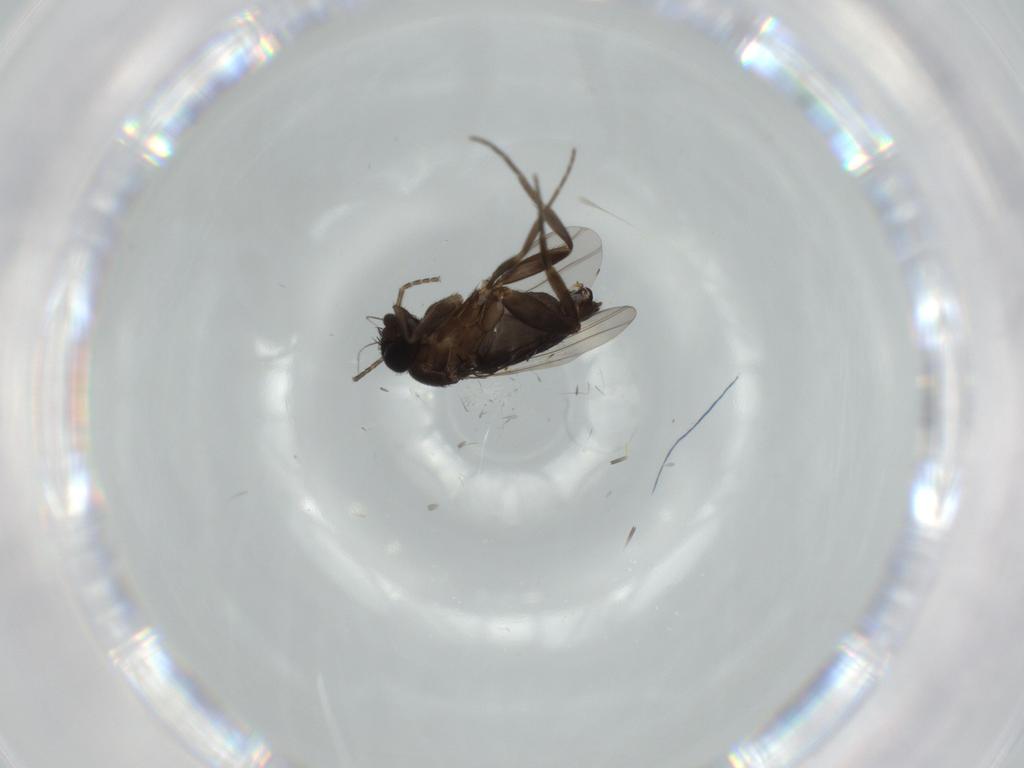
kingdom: Animalia
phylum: Arthropoda
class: Insecta
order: Diptera
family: Phoridae
